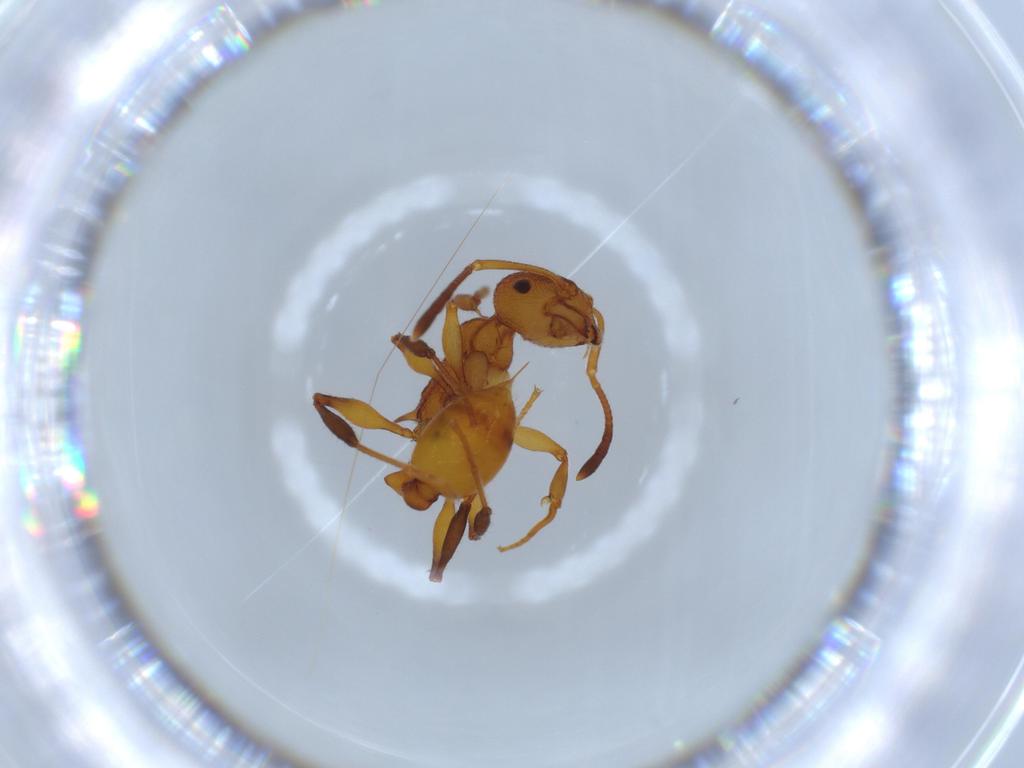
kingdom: Animalia
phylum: Arthropoda
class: Insecta
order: Hymenoptera
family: Formicidae
